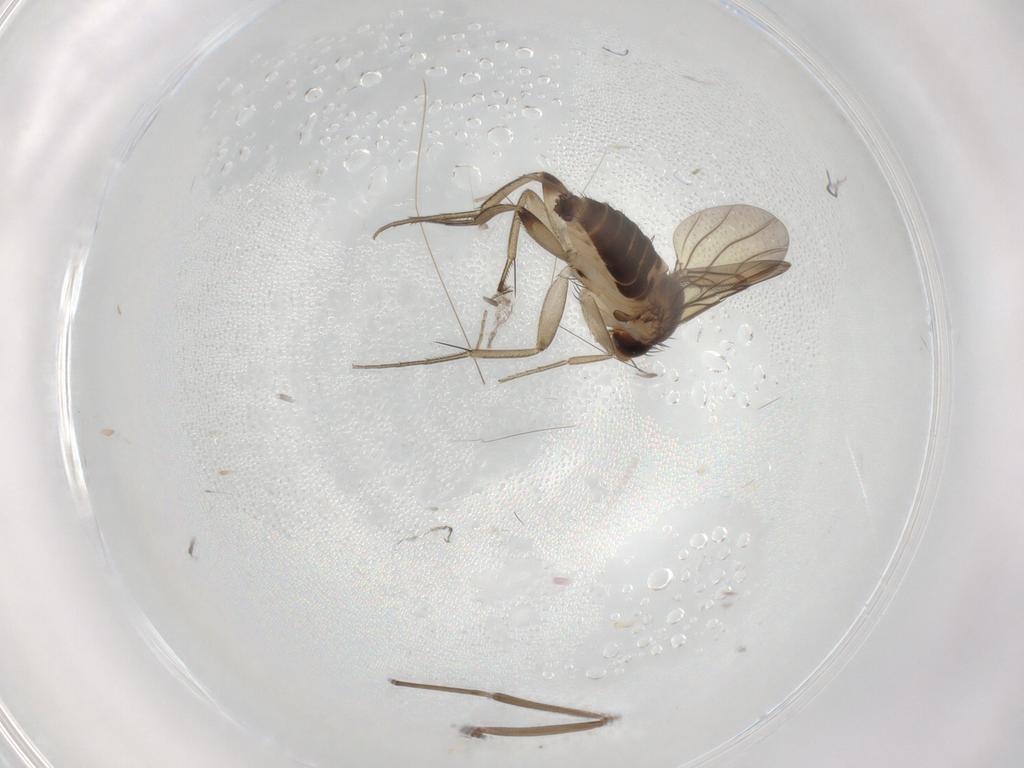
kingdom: Animalia
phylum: Arthropoda
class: Insecta
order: Diptera
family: Phoridae
